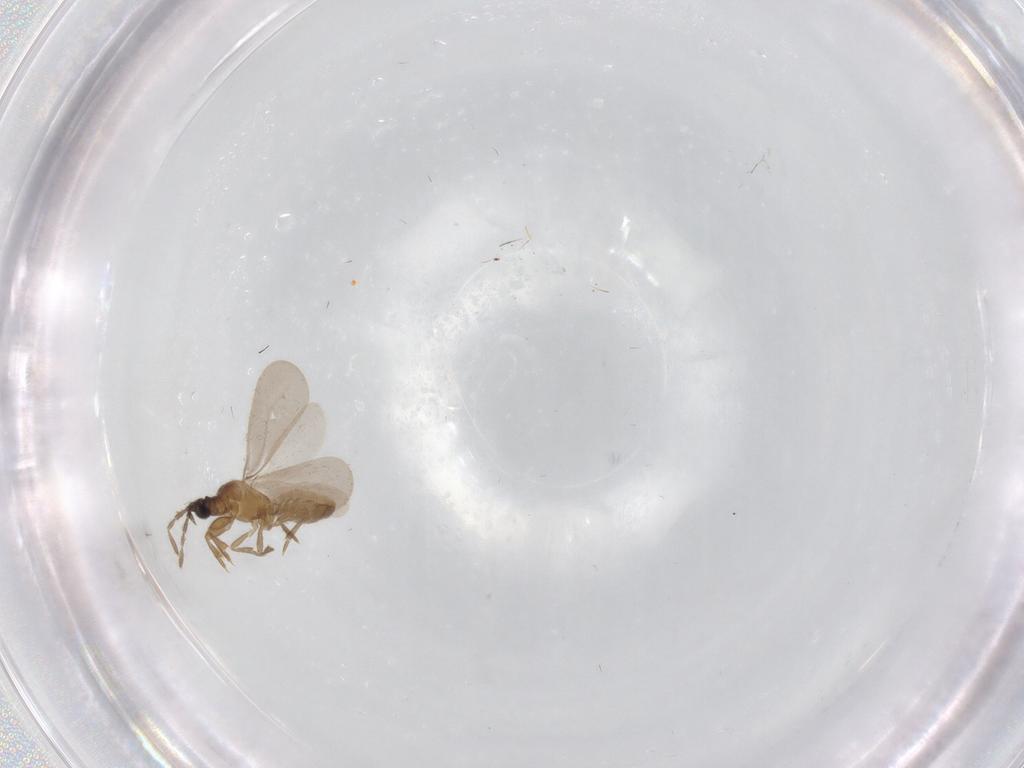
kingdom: Animalia
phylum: Arthropoda
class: Insecta
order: Hemiptera
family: Enicocephalidae
